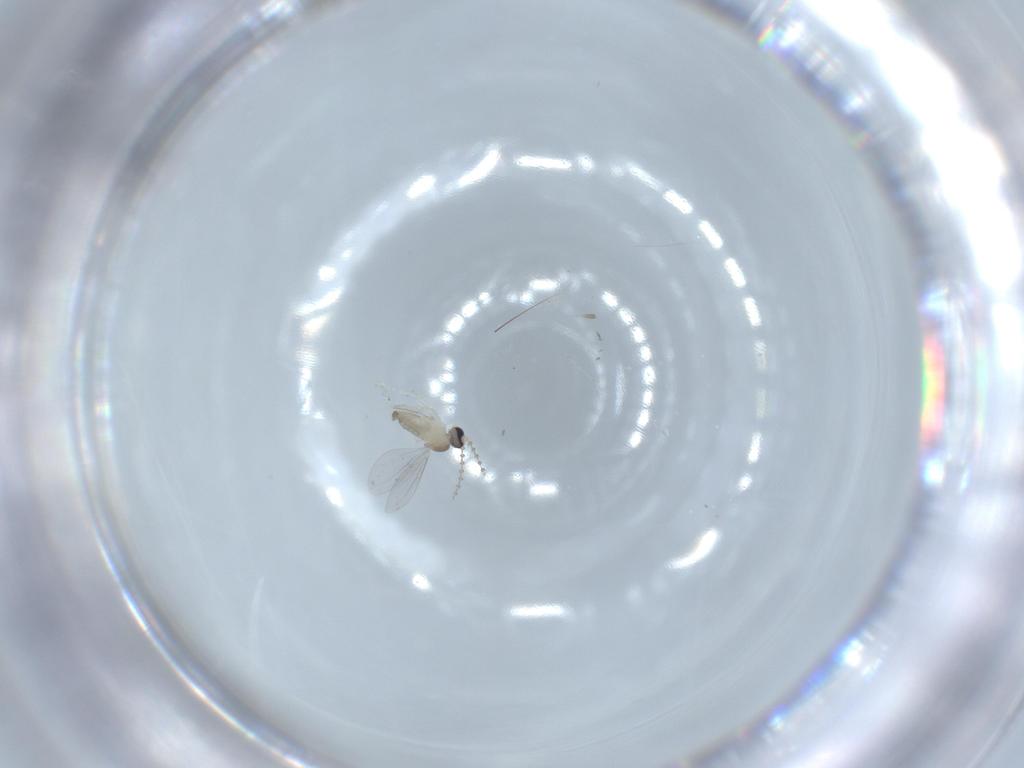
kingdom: Animalia
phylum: Arthropoda
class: Insecta
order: Diptera
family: Cecidomyiidae
